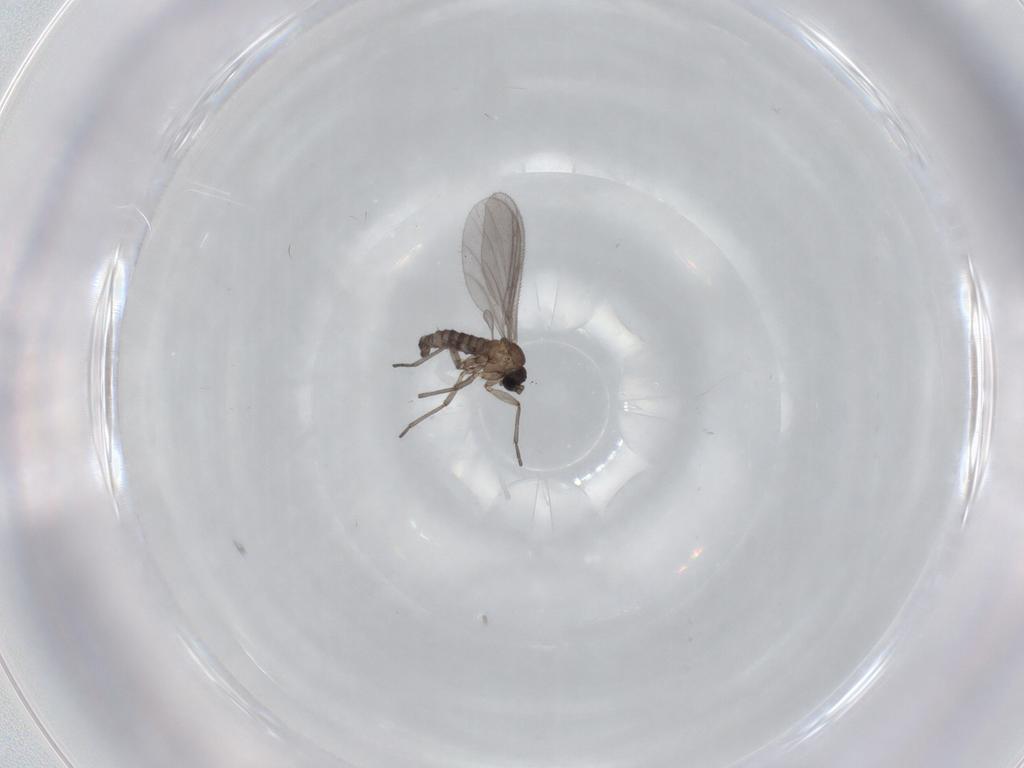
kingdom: Animalia
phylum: Arthropoda
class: Insecta
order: Diptera
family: Sciaridae
